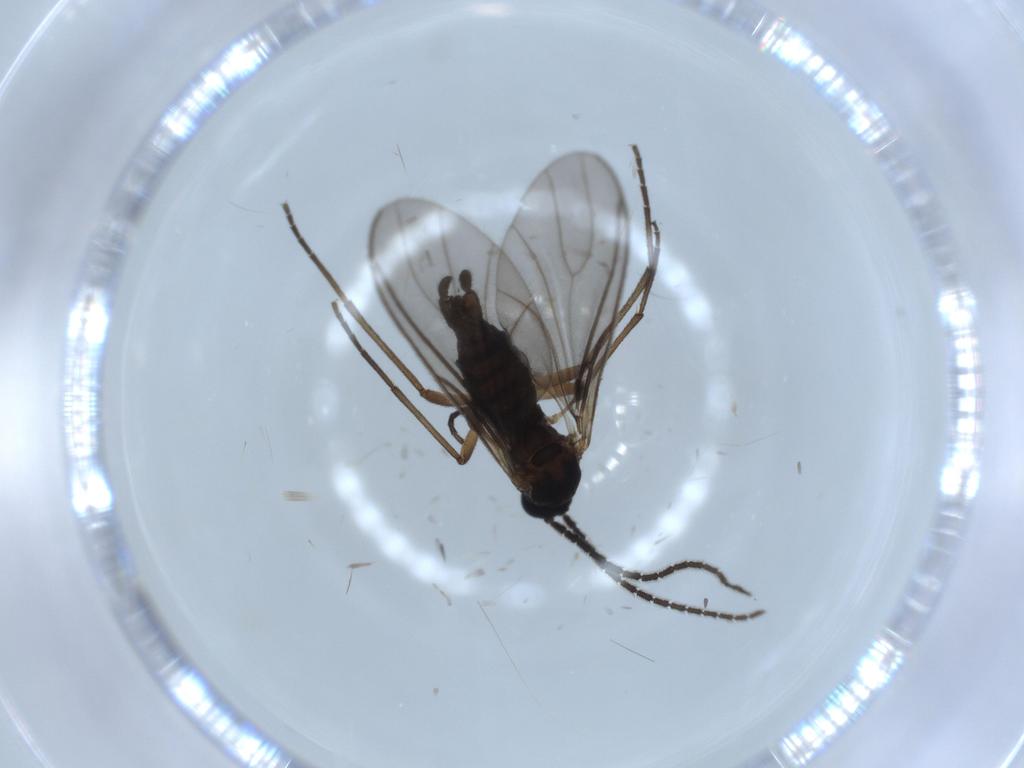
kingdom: Animalia
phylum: Arthropoda
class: Insecta
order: Diptera
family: Sciaridae
